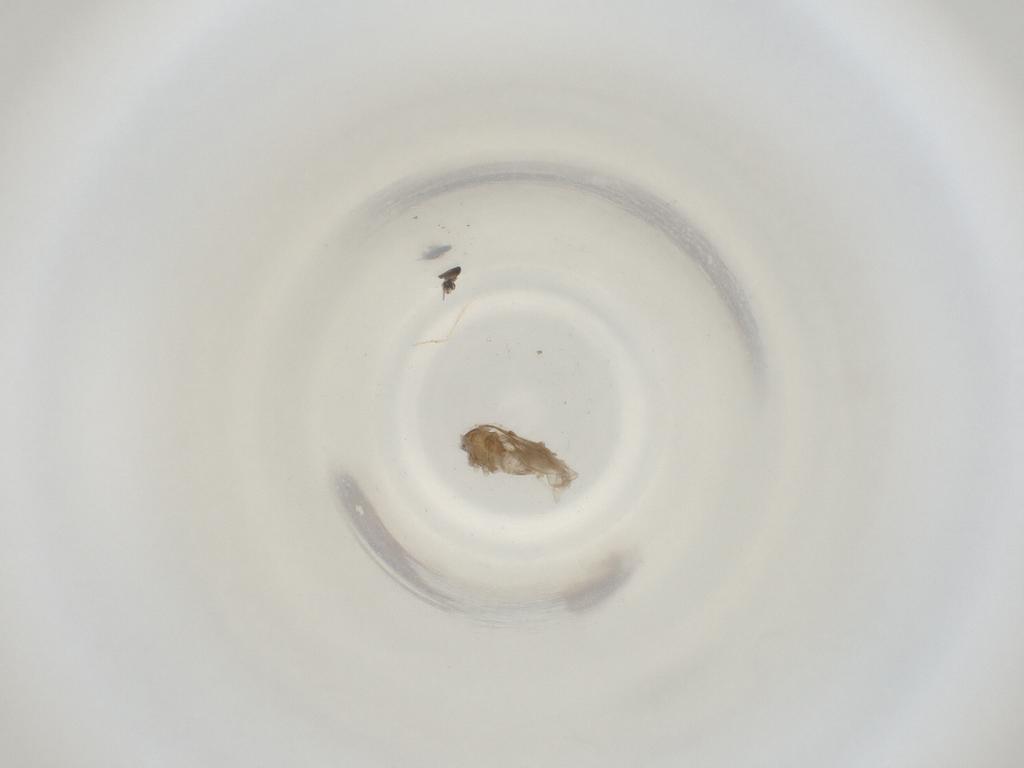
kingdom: Animalia
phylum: Arthropoda
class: Insecta
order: Diptera
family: Cecidomyiidae
